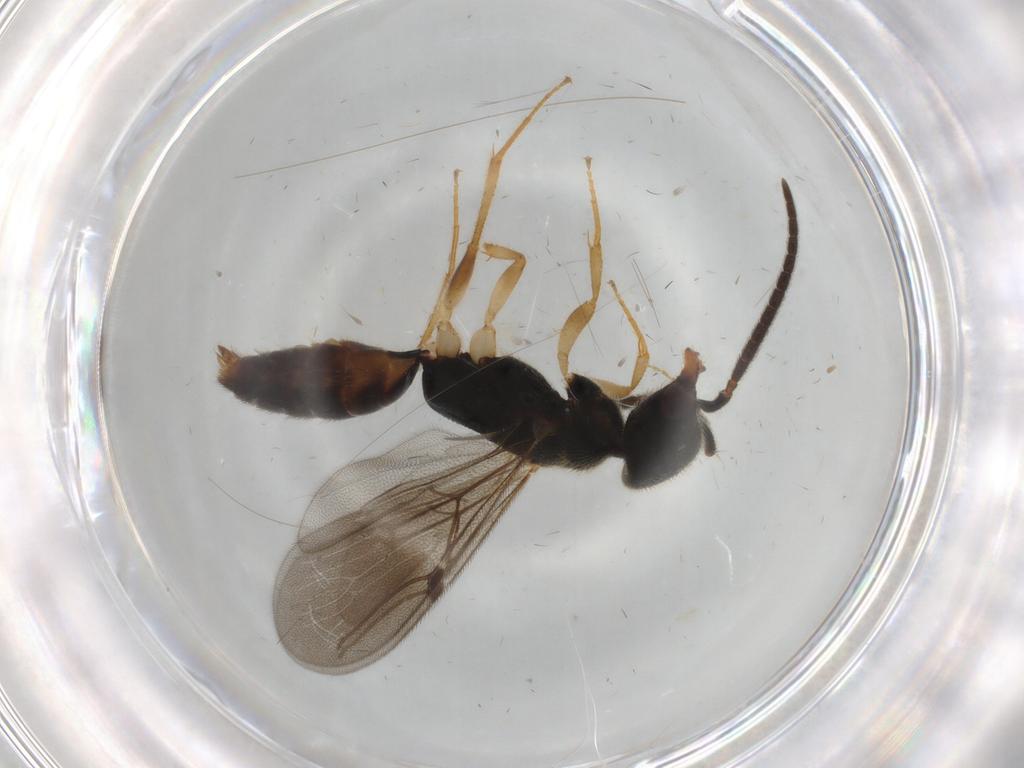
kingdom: Animalia
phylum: Arthropoda
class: Insecta
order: Hymenoptera
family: Bethylidae
